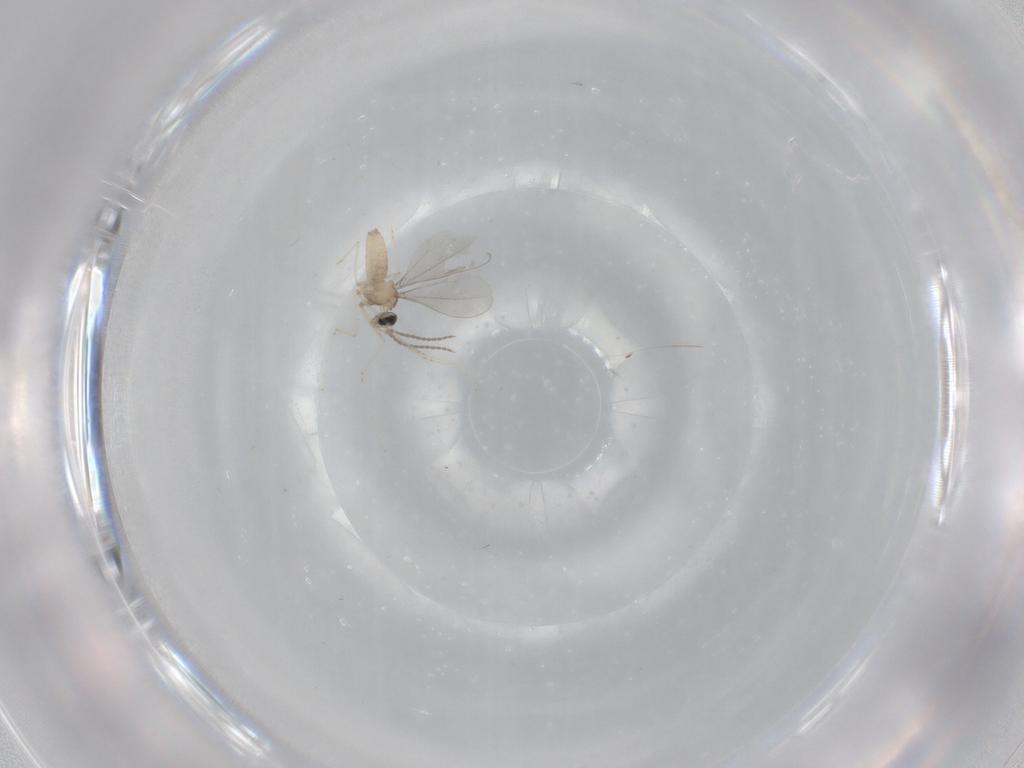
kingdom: Animalia
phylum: Arthropoda
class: Insecta
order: Diptera
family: Cecidomyiidae
